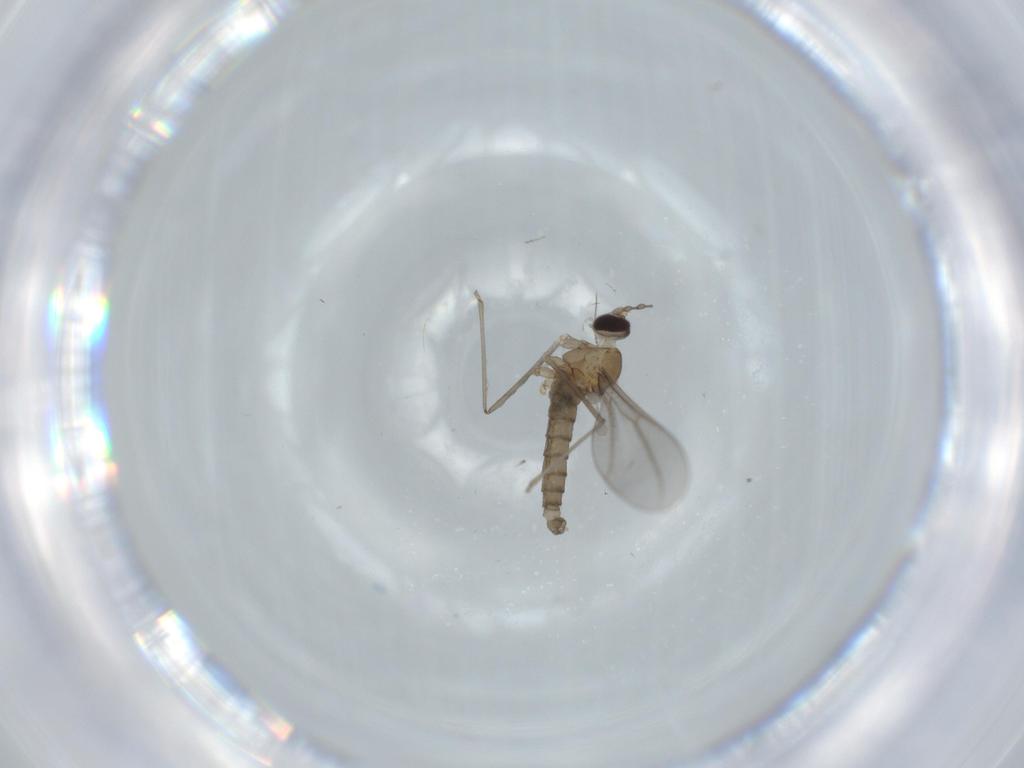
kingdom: Animalia
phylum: Arthropoda
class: Insecta
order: Diptera
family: Cecidomyiidae
